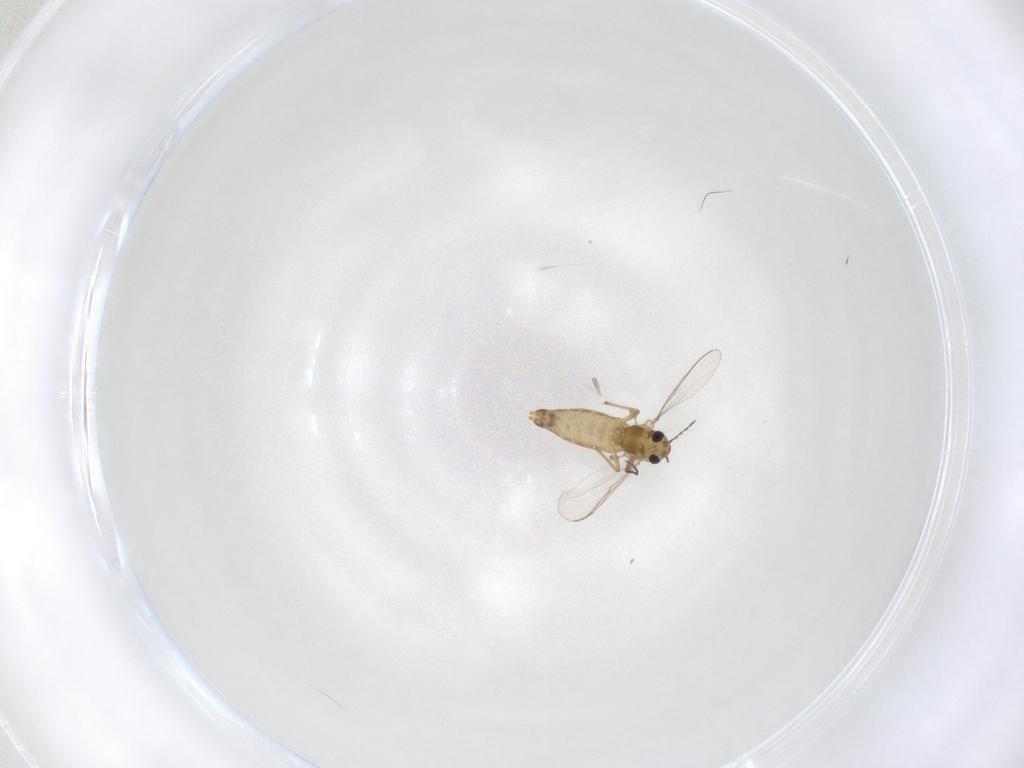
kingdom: Animalia
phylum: Arthropoda
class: Insecta
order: Diptera
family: Chironomidae
